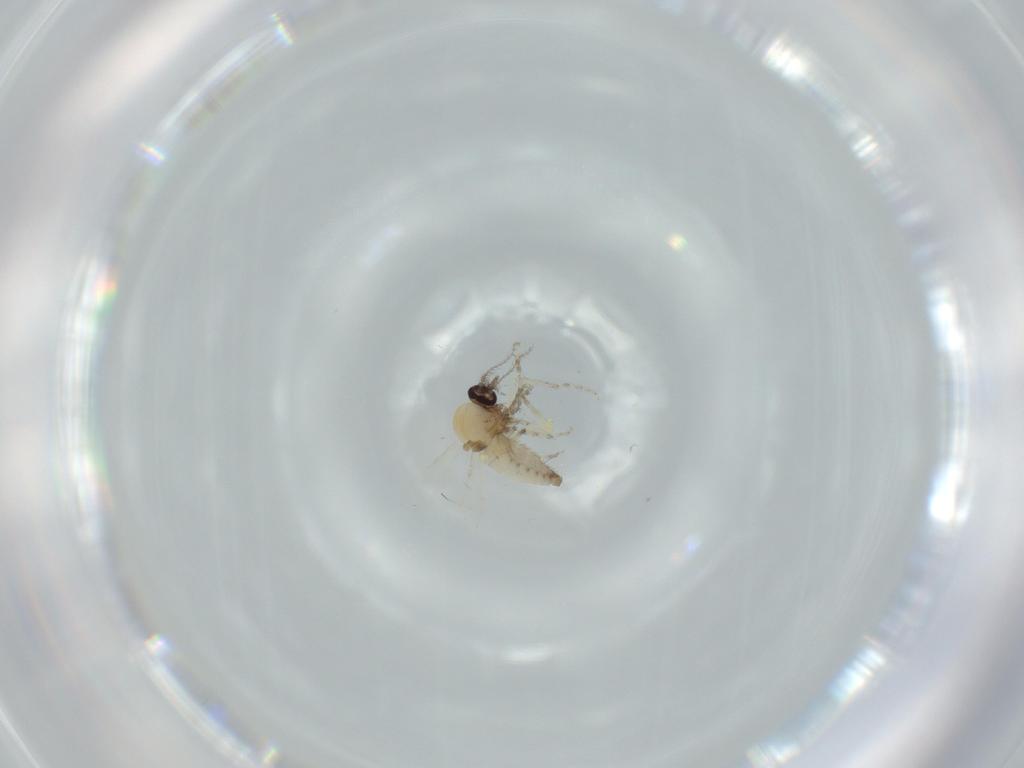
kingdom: Animalia
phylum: Arthropoda
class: Insecta
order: Diptera
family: Ceratopogonidae
